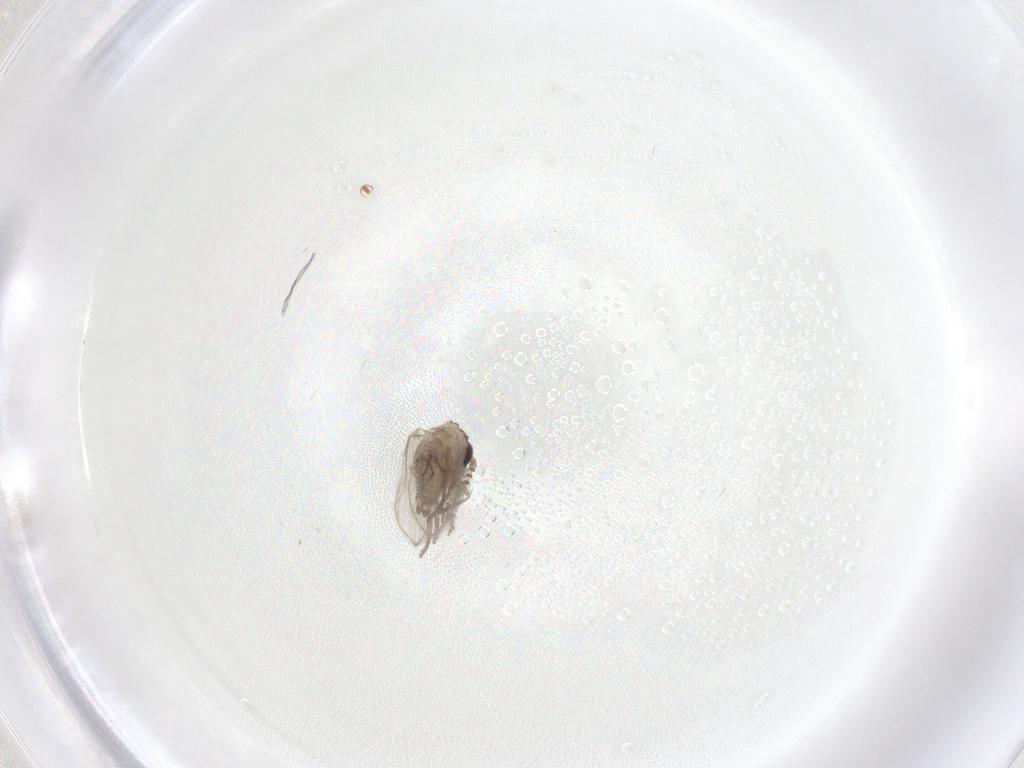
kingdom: Animalia
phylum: Arthropoda
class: Insecta
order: Diptera
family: Chironomidae
